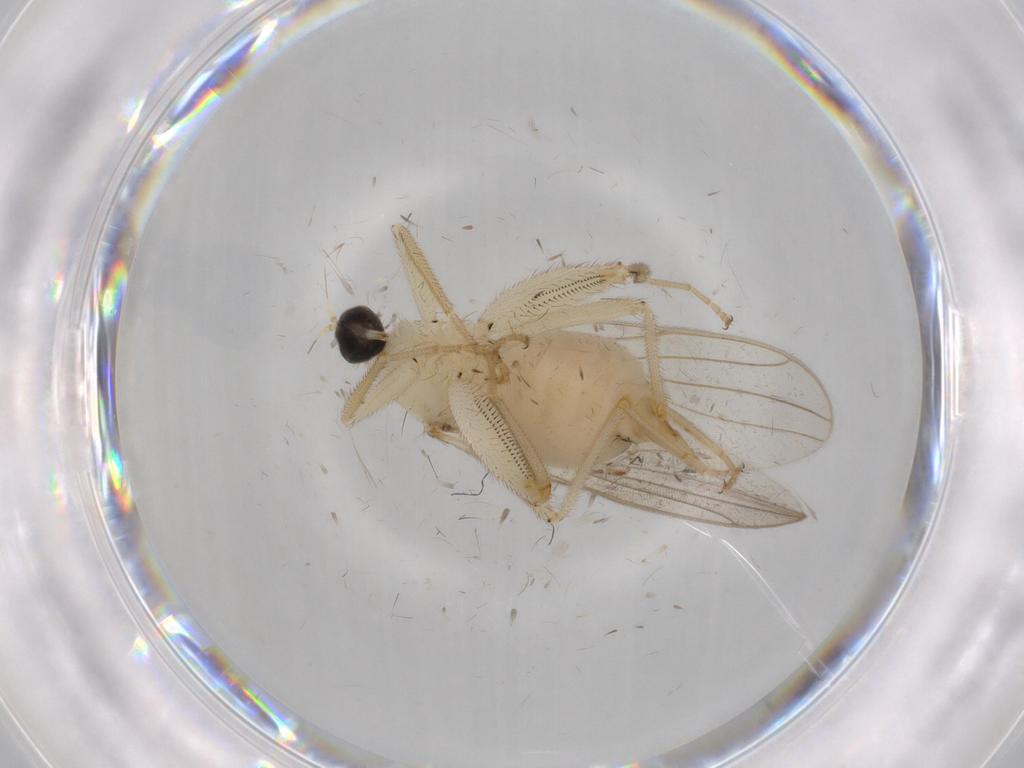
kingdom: Animalia
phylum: Arthropoda
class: Insecta
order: Diptera
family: Hybotidae
